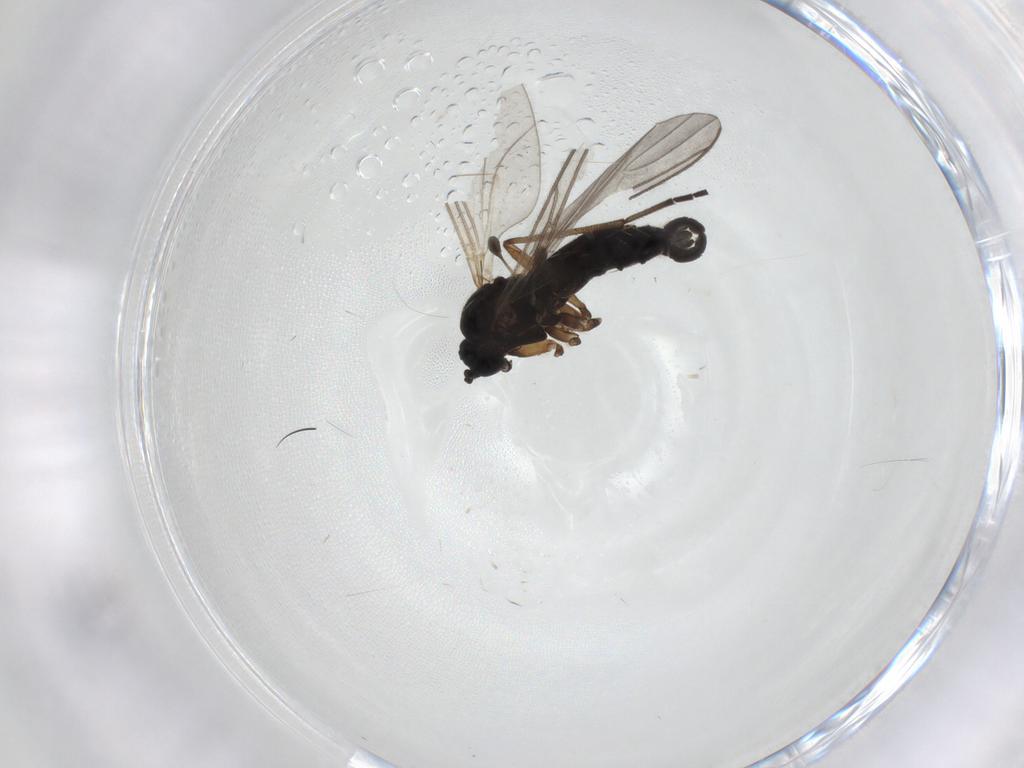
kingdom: Animalia
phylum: Arthropoda
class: Insecta
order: Diptera
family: Sciaridae
